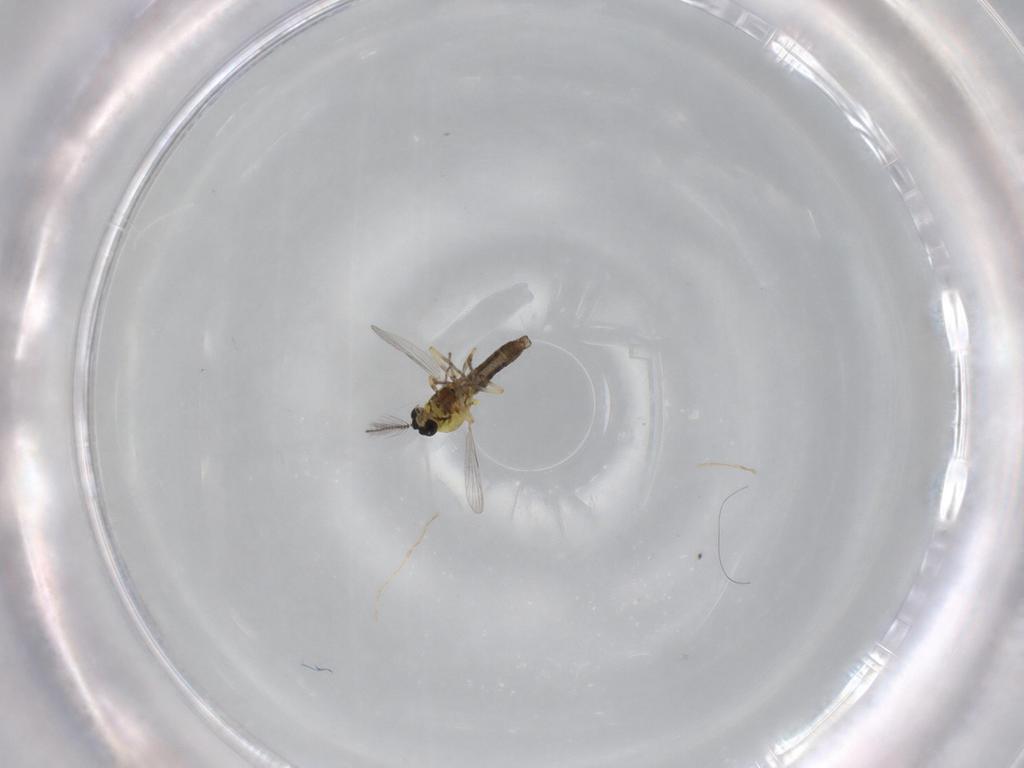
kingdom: Animalia
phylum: Arthropoda
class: Insecta
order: Diptera
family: Ceratopogonidae
